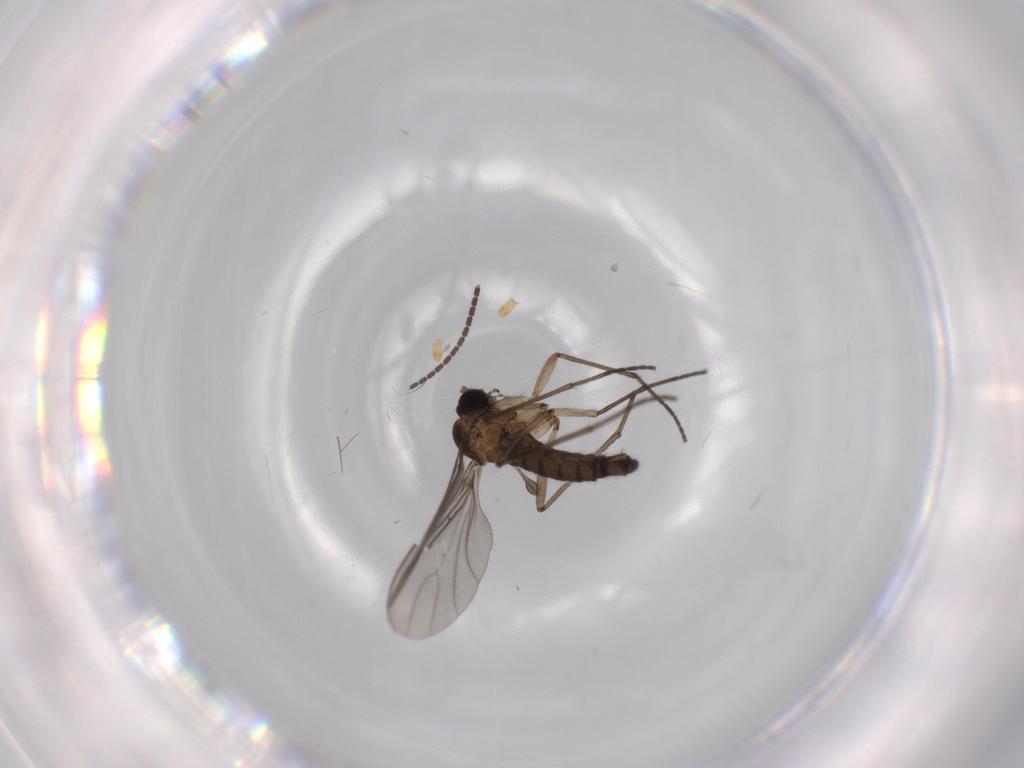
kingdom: Animalia
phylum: Arthropoda
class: Insecta
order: Diptera
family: Sciaridae
